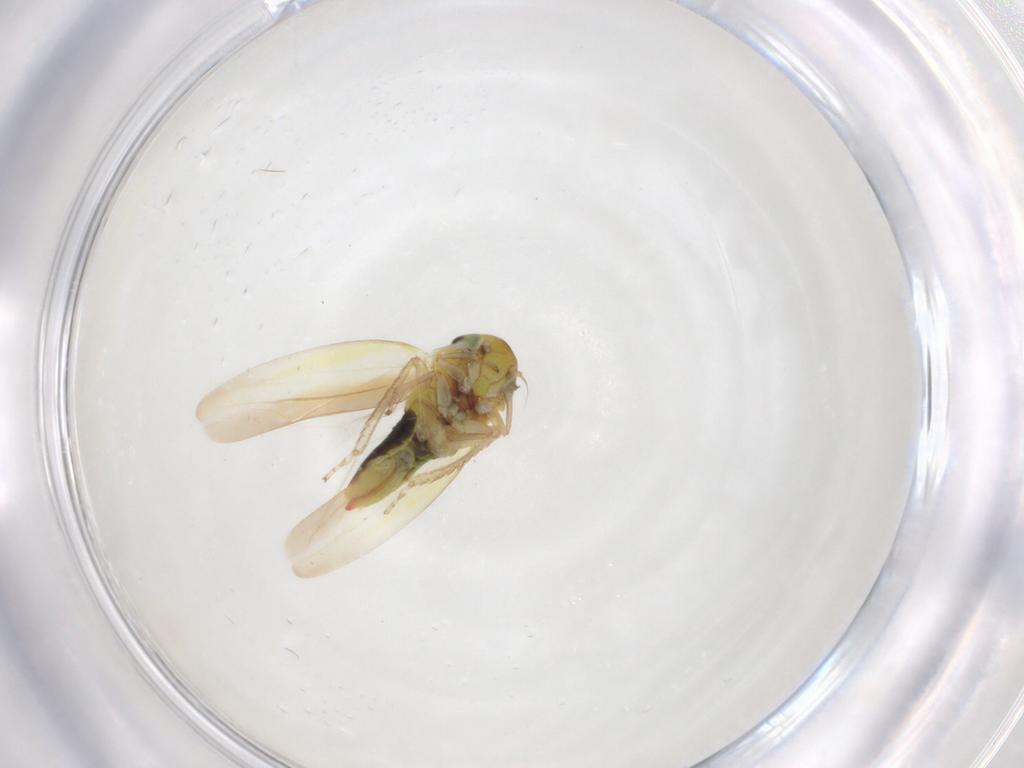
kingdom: Animalia
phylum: Arthropoda
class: Insecta
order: Hemiptera
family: Cicadellidae
